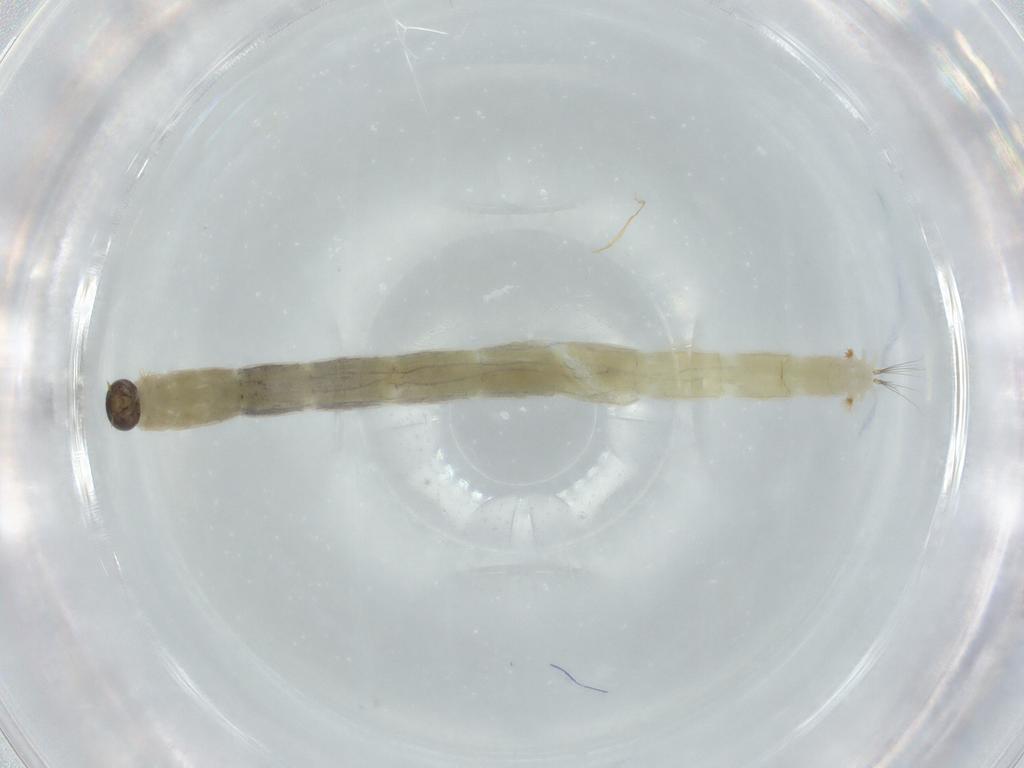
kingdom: Animalia
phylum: Arthropoda
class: Insecta
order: Diptera
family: Chironomidae
